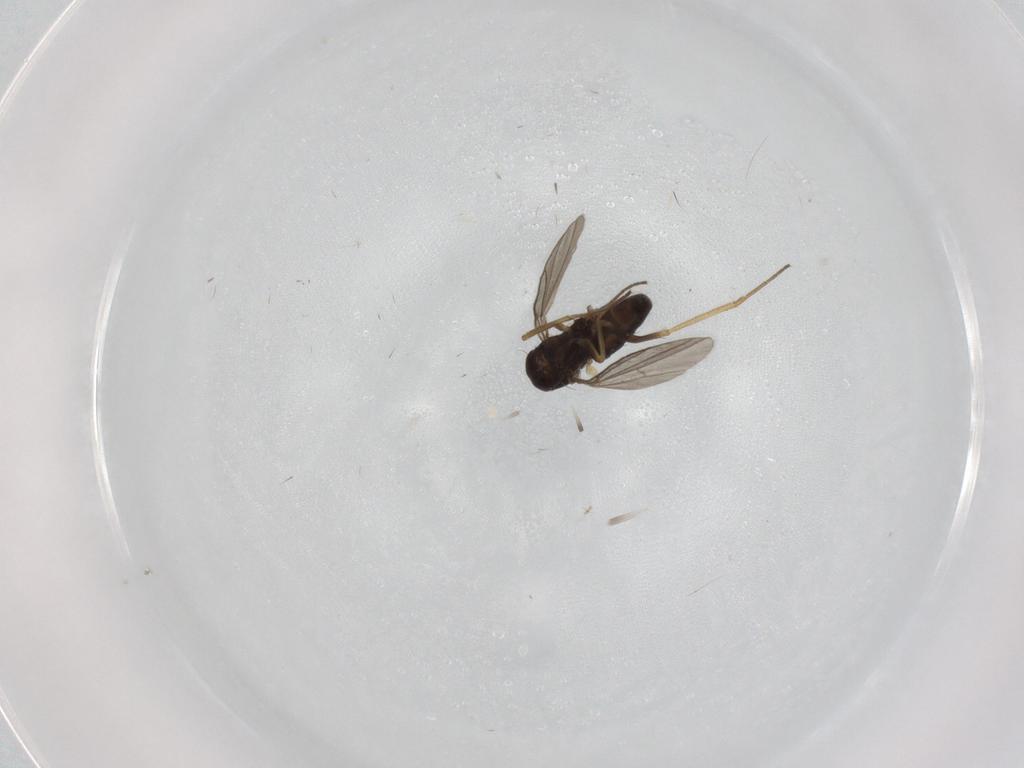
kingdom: Animalia
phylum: Arthropoda
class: Insecta
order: Diptera
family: Dolichopodidae
